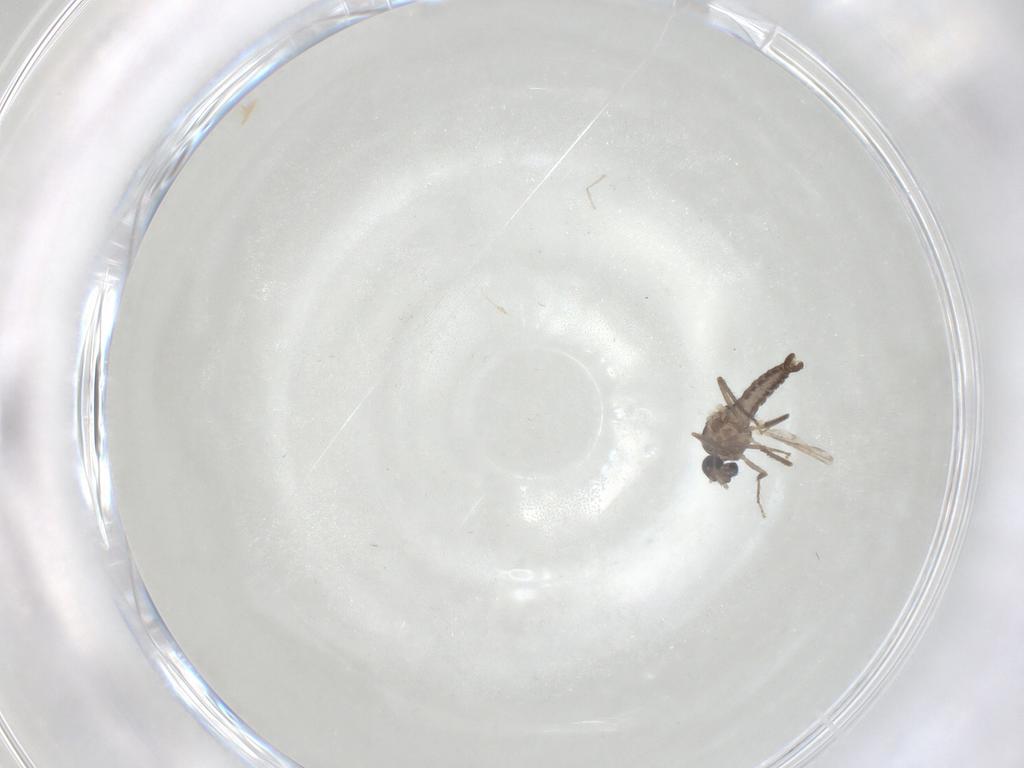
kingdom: Animalia
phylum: Arthropoda
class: Insecta
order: Diptera
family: Ceratopogonidae
